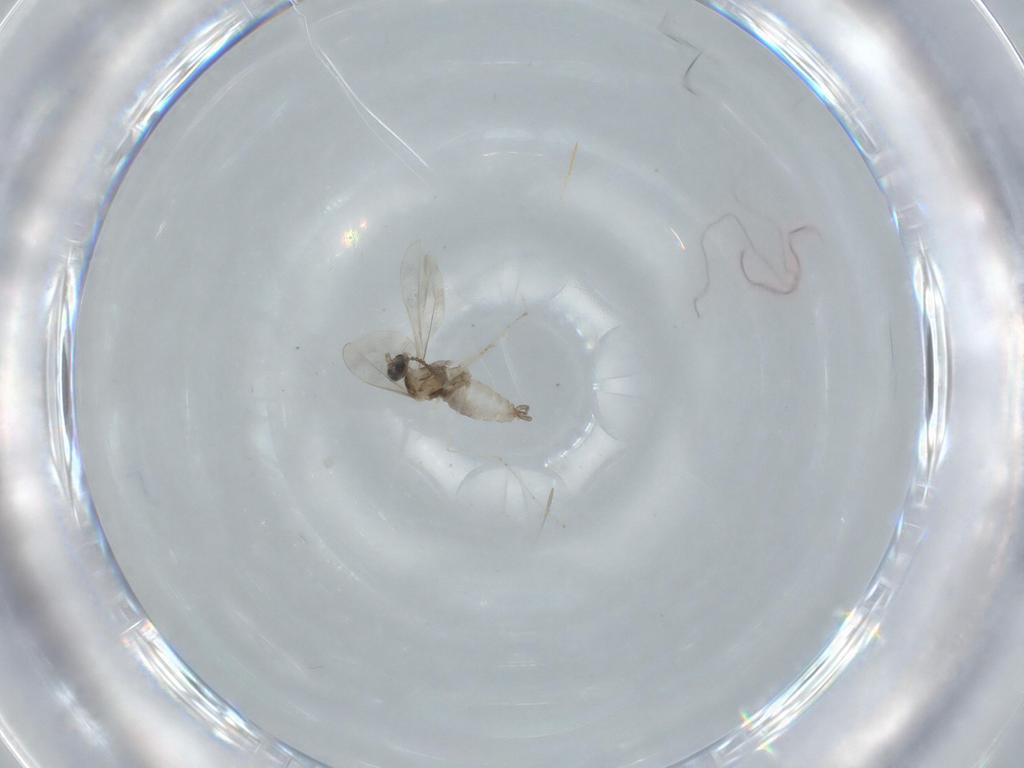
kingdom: Animalia
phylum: Arthropoda
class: Insecta
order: Diptera
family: Cecidomyiidae
